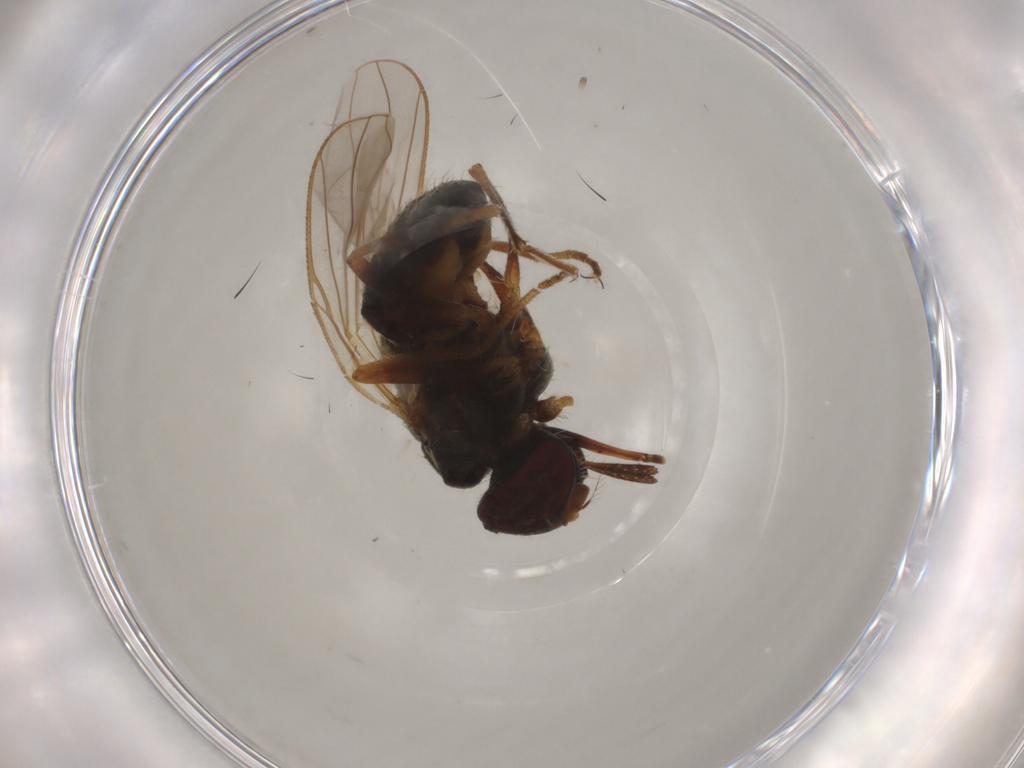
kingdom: Animalia
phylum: Arthropoda
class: Insecta
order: Diptera
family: Muscidae
